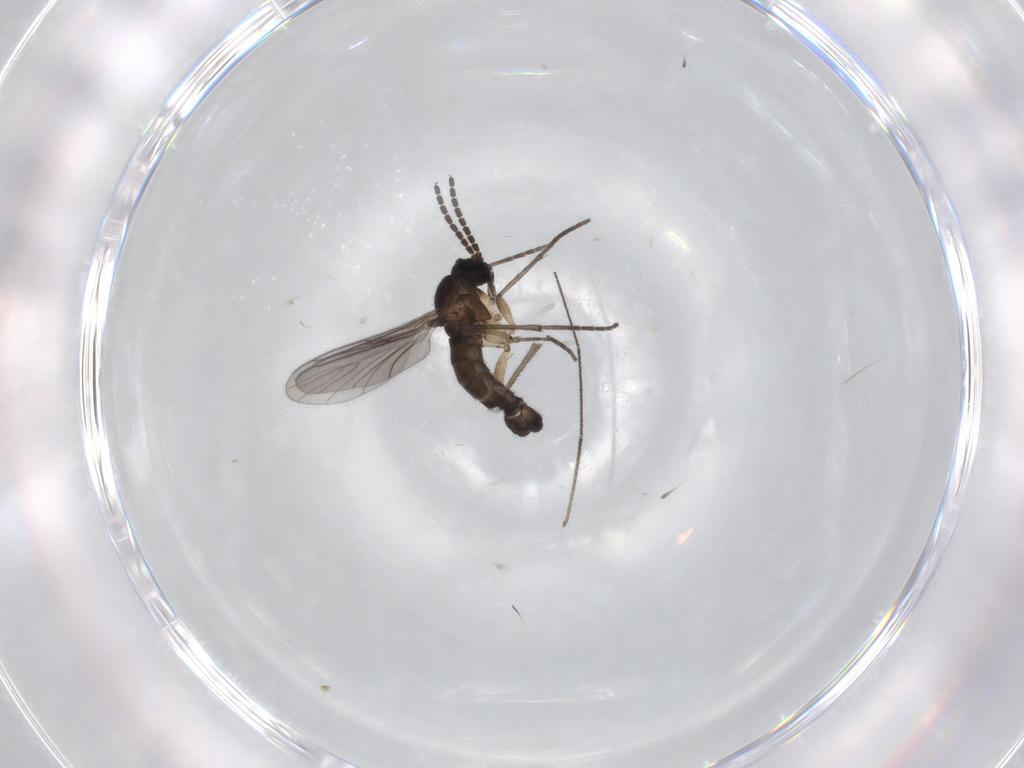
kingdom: Animalia
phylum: Arthropoda
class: Insecta
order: Diptera
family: Sciaridae
